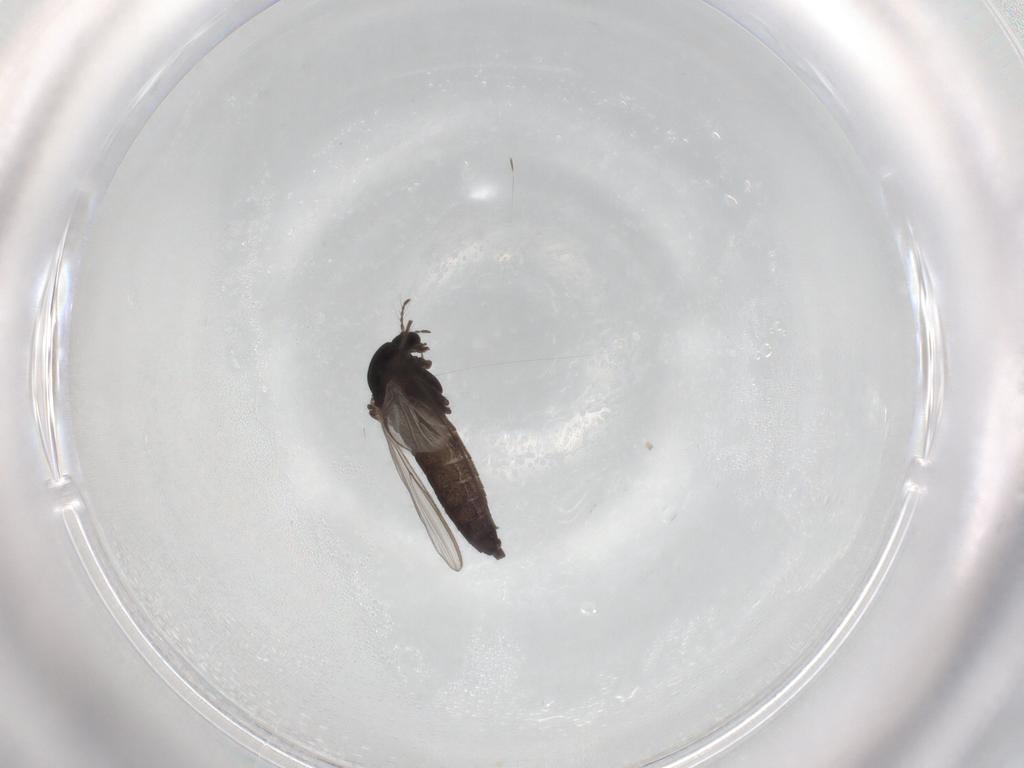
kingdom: Animalia
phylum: Arthropoda
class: Insecta
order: Diptera
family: Chironomidae
